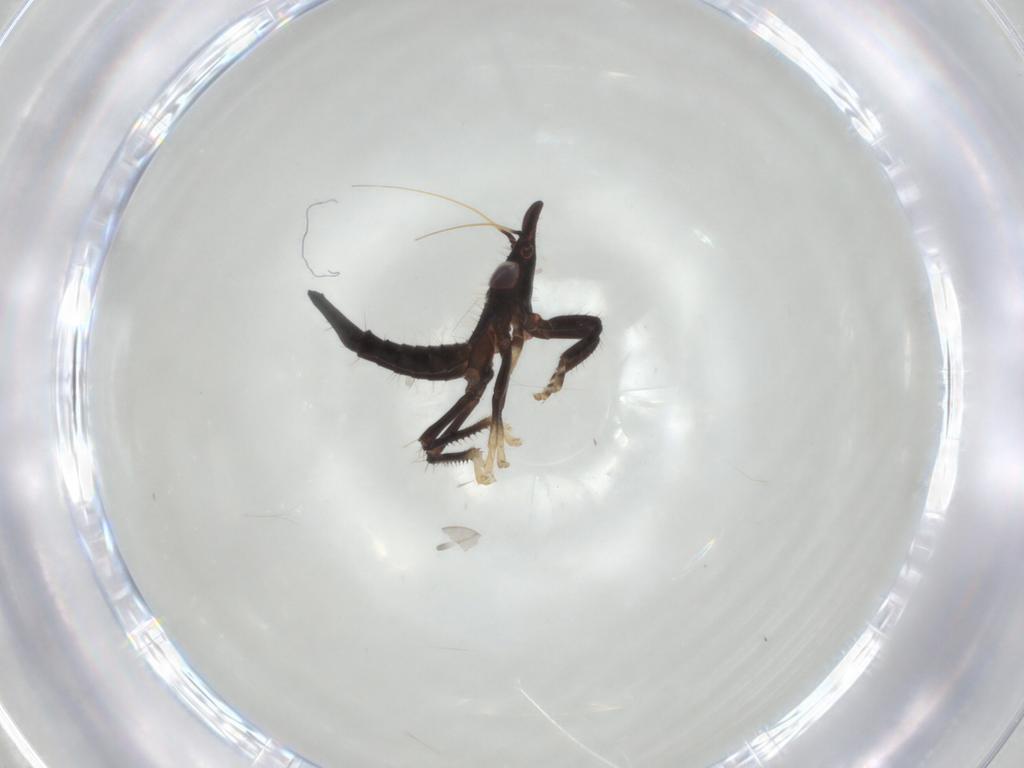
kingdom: Animalia
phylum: Arthropoda
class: Insecta
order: Hemiptera
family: Cicadellidae
